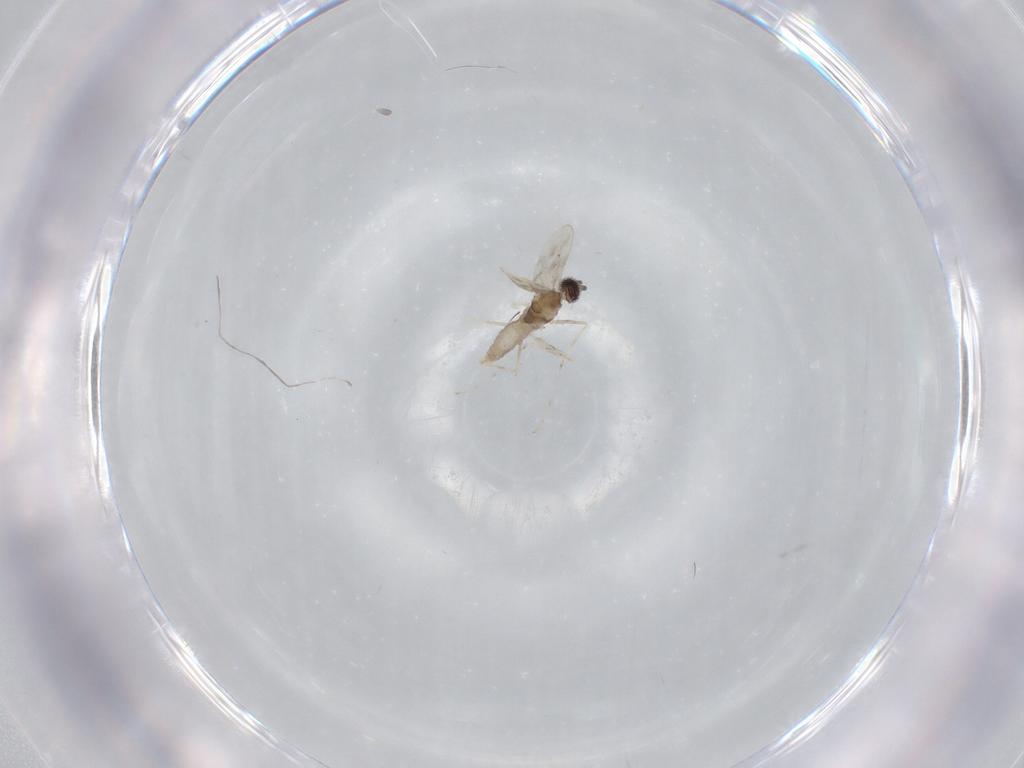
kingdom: Animalia
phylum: Arthropoda
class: Insecta
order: Diptera
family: Cecidomyiidae
